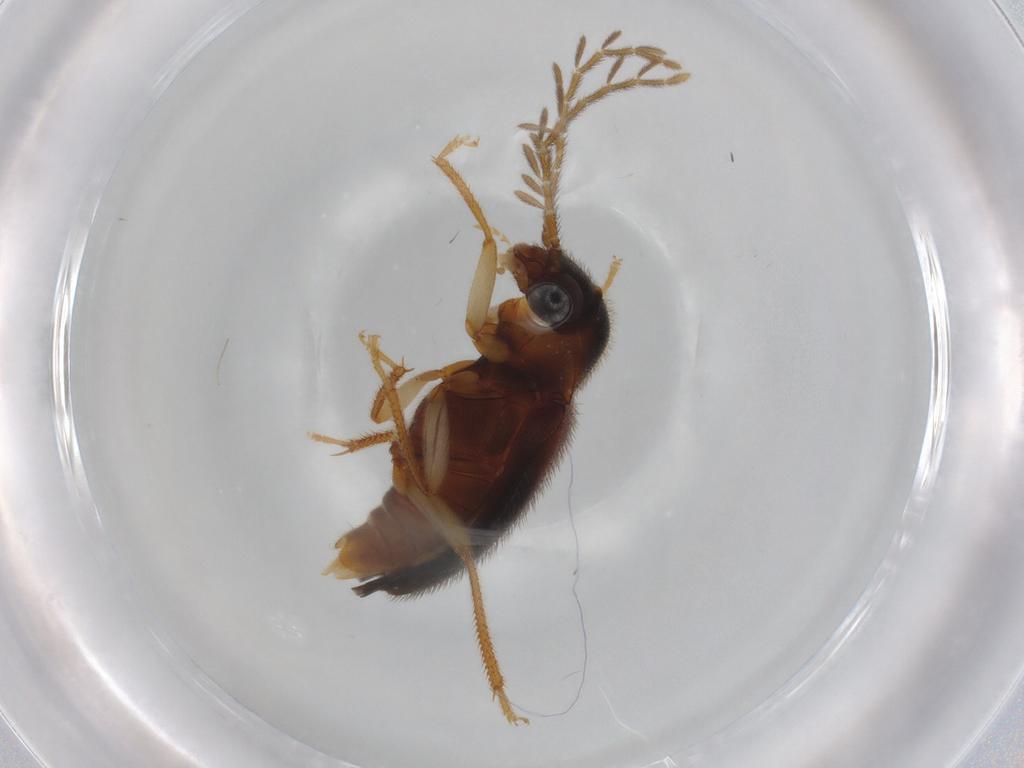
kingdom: Animalia
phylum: Arthropoda
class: Insecta
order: Coleoptera
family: Ptilodactylidae
